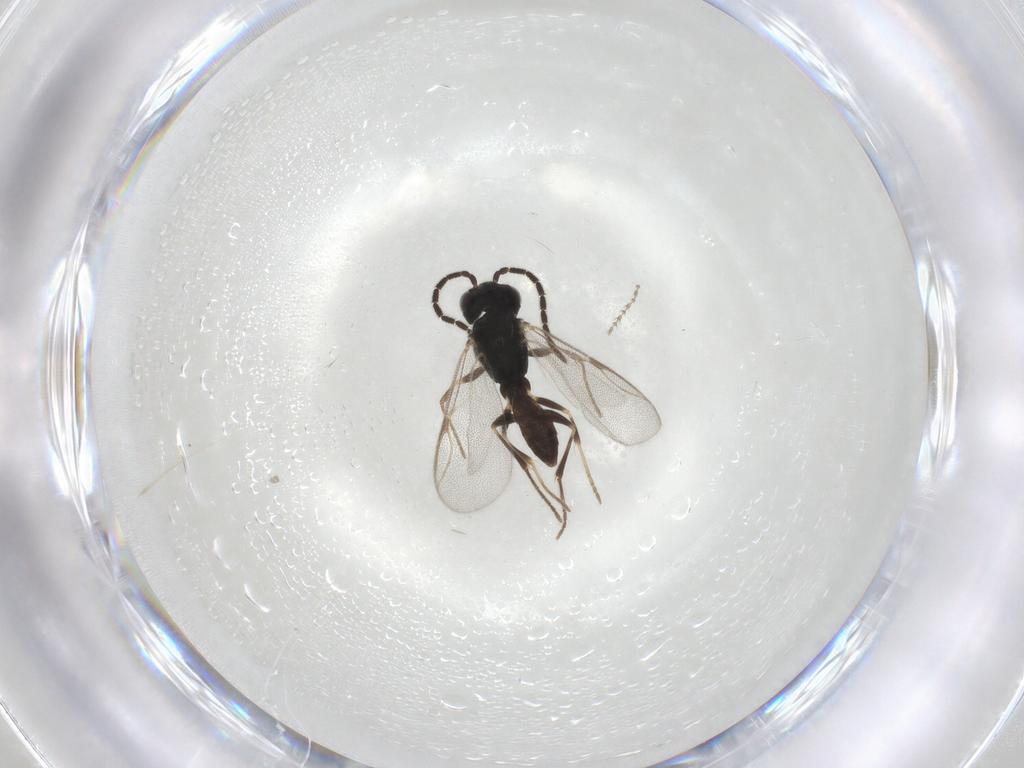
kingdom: Animalia
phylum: Arthropoda
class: Insecta
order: Hymenoptera
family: Dryinidae
